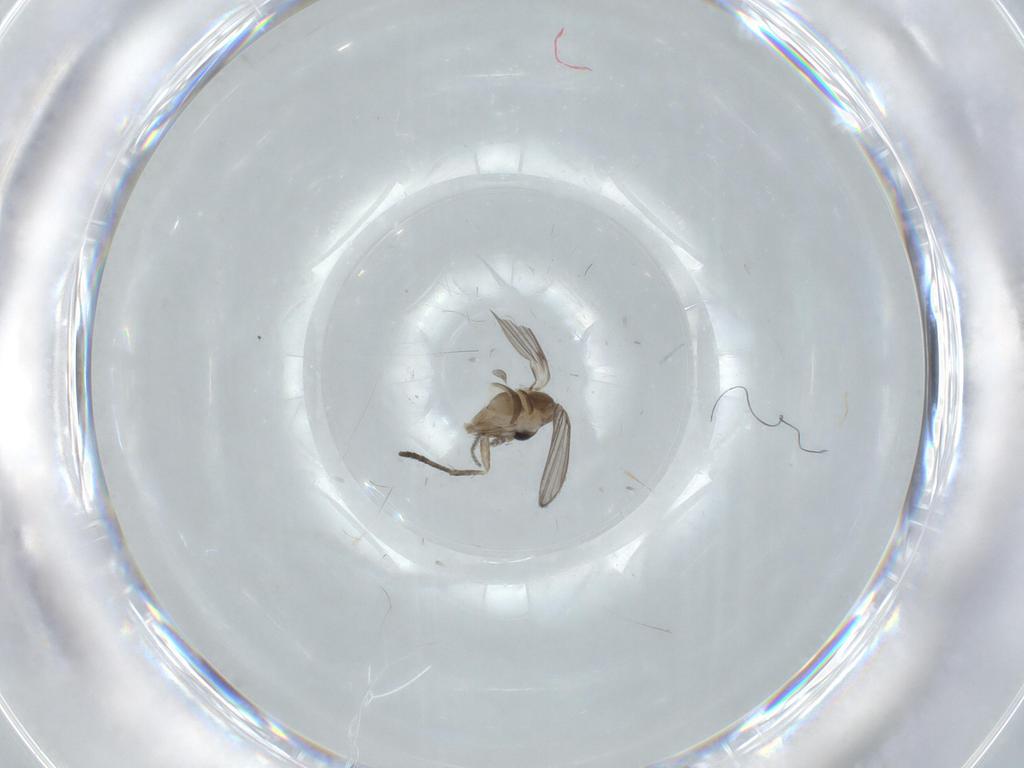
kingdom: Animalia
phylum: Arthropoda
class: Insecta
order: Diptera
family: Psychodidae
